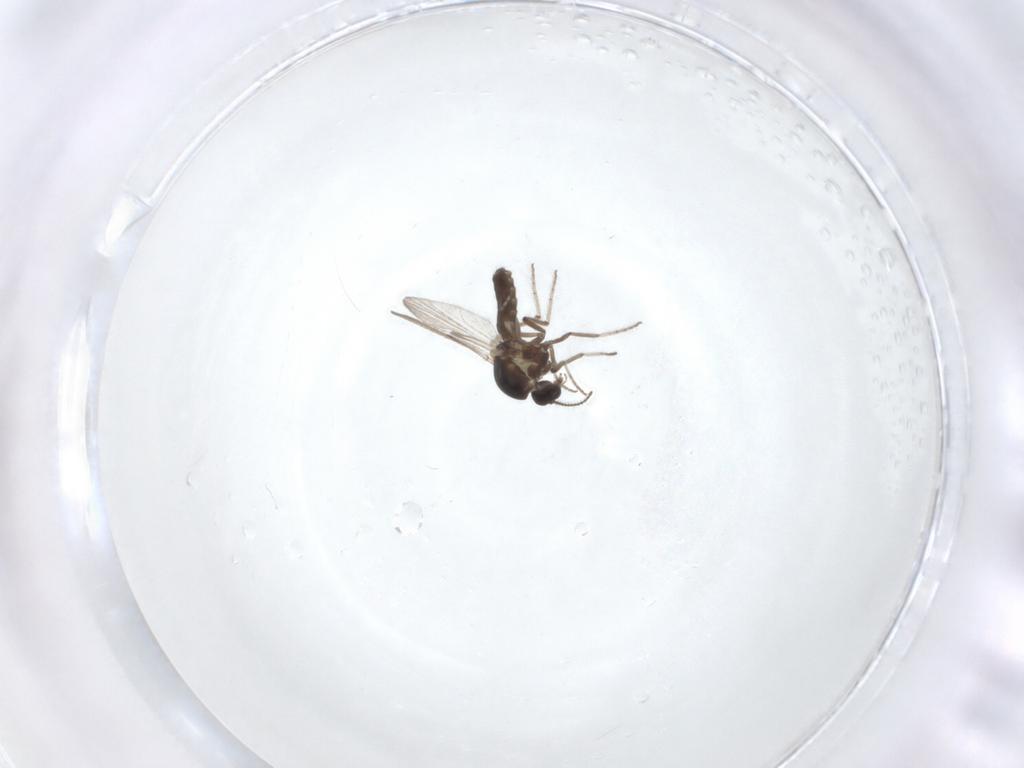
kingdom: Animalia
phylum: Arthropoda
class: Insecta
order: Diptera
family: Ceratopogonidae
